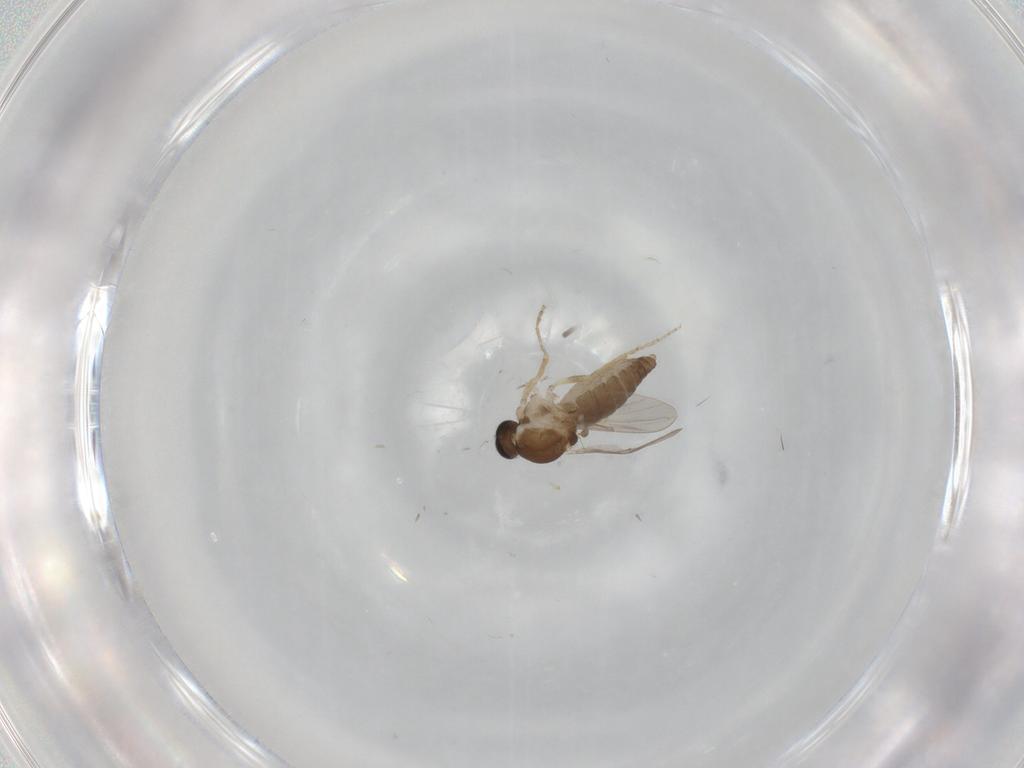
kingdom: Animalia
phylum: Arthropoda
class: Insecta
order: Diptera
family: Ceratopogonidae
